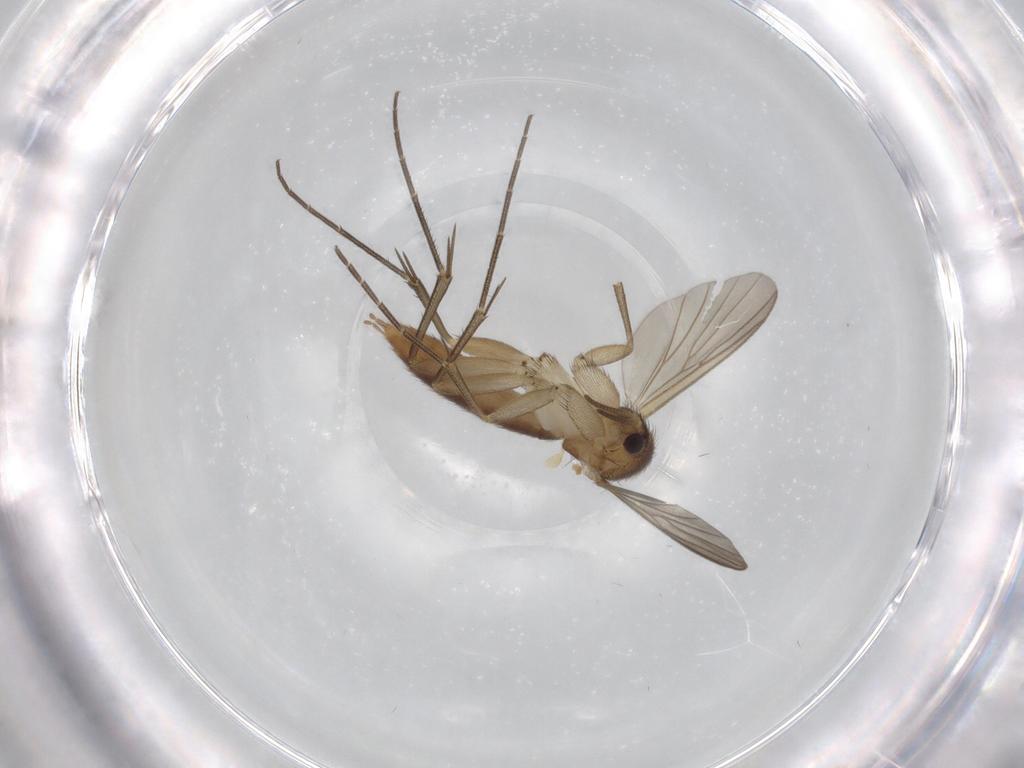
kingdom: Animalia
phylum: Arthropoda
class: Insecta
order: Diptera
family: Mycetophilidae
